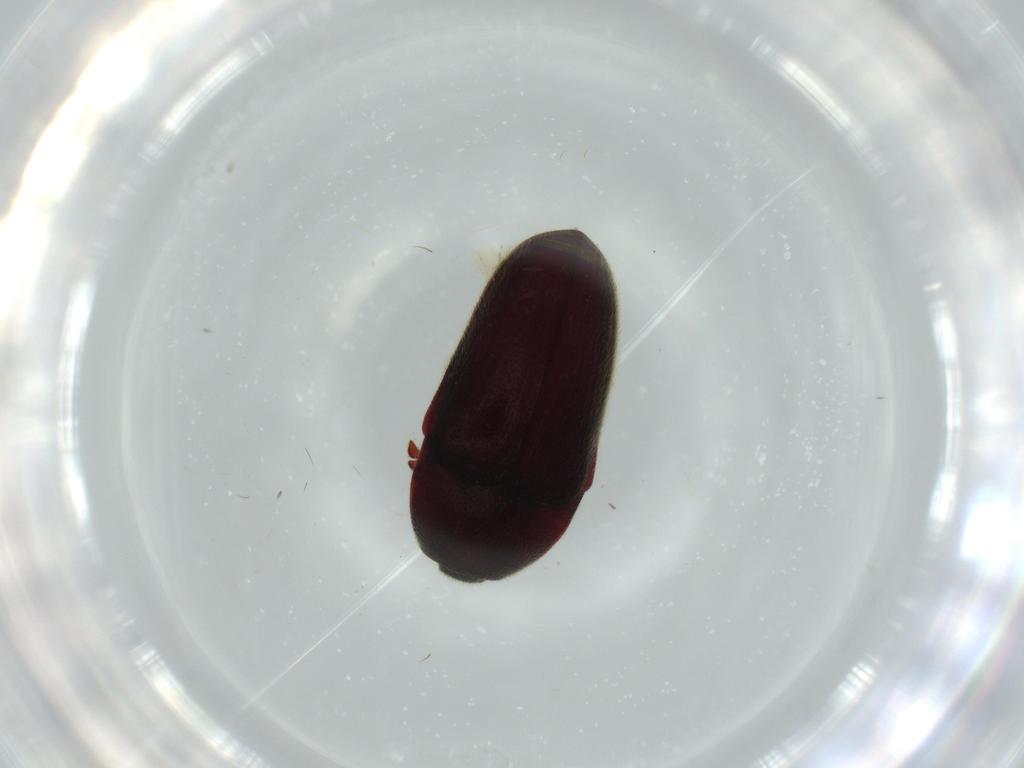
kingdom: Animalia
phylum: Arthropoda
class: Insecta
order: Coleoptera
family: Throscidae
